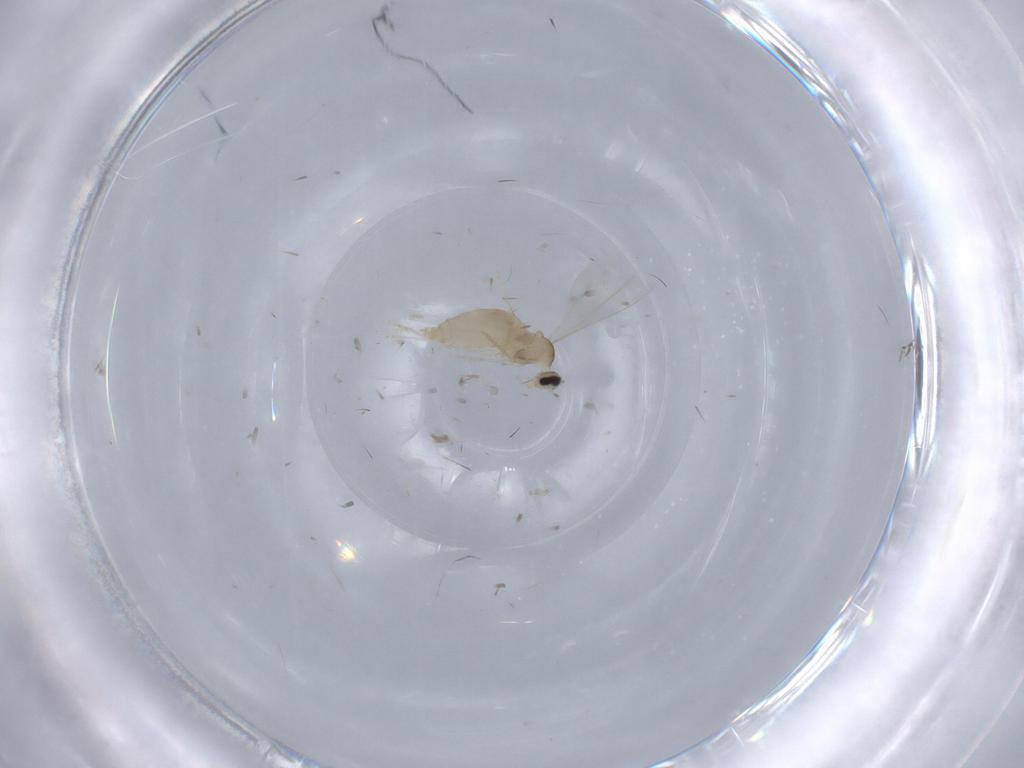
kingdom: Animalia
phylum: Arthropoda
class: Insecta
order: Diptera
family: Cecidomyiidae
